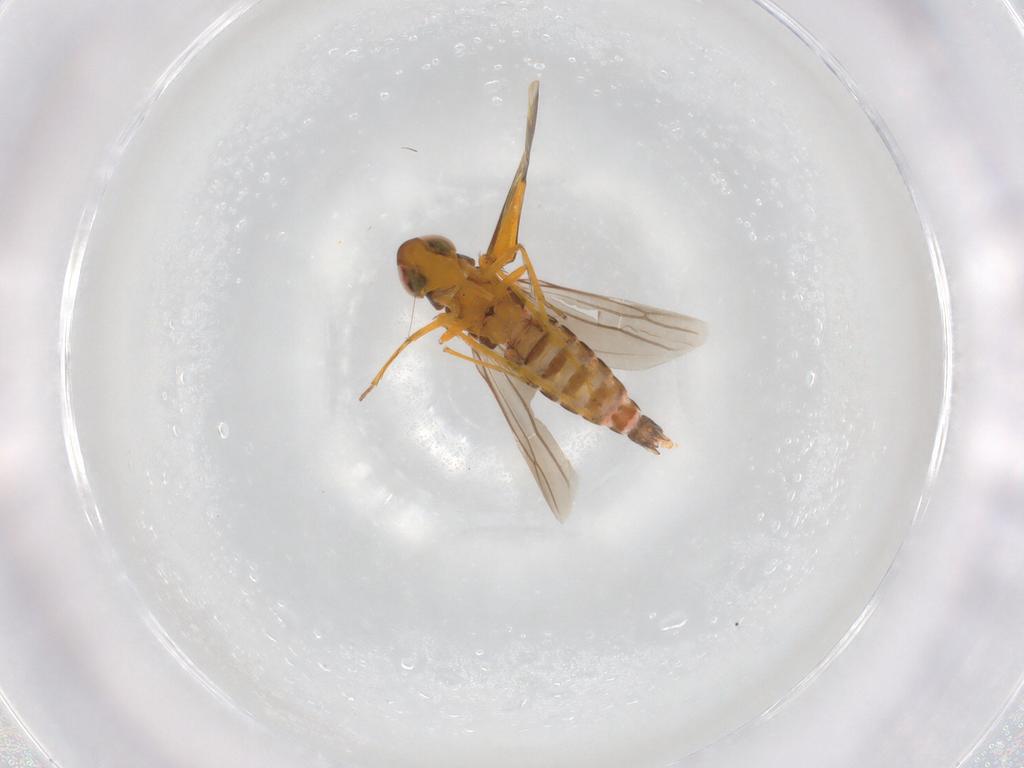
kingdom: Animalia
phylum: Arthropoda
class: Insecta
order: Hemiptera
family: Cicadellidae
